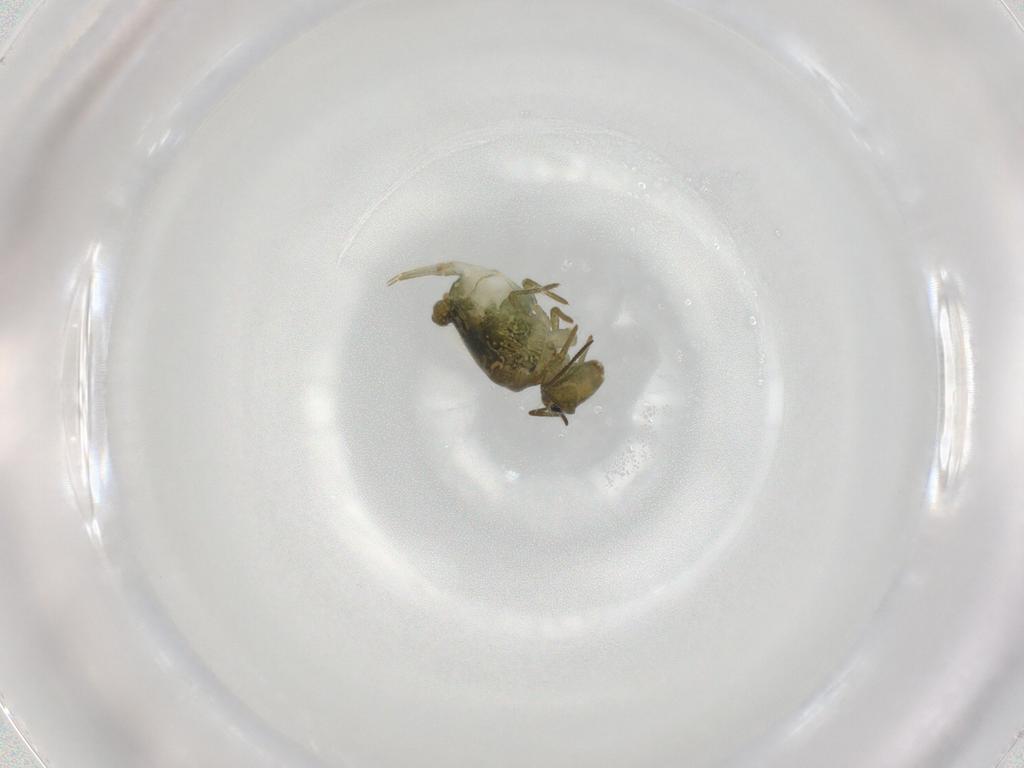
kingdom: Animalia
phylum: Arthropoda
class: Collembola
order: Symphypleona
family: Sminthuridae
